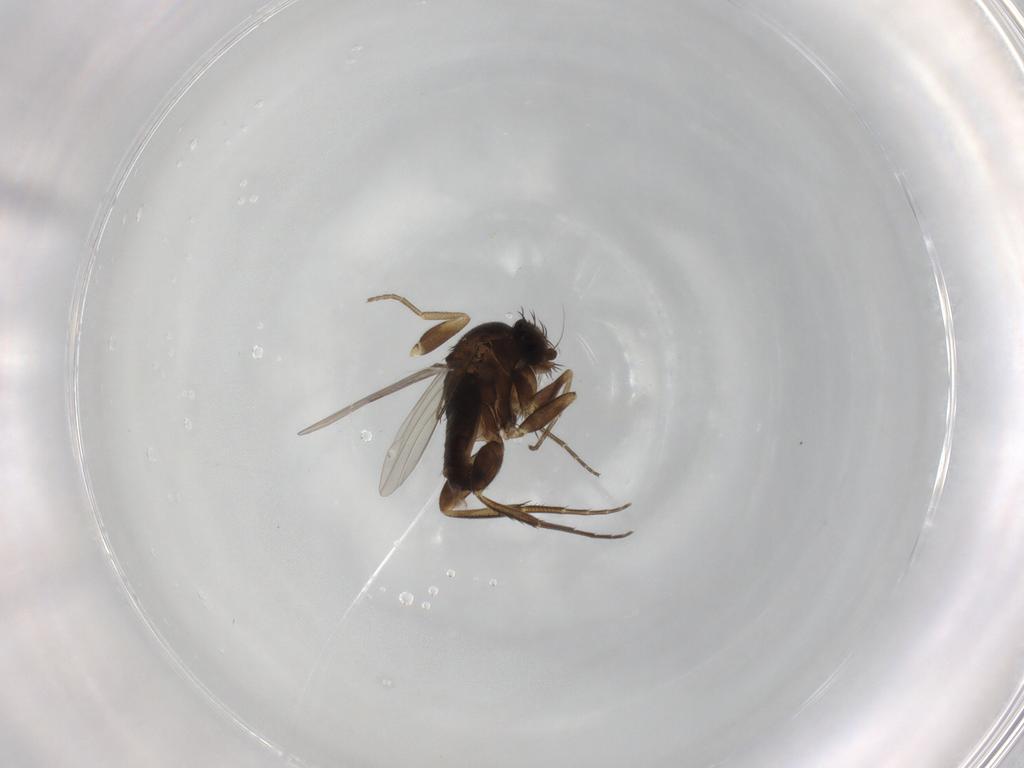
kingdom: Animalia
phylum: Arthropoda
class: Insecta
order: Diptera
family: Phoridae
